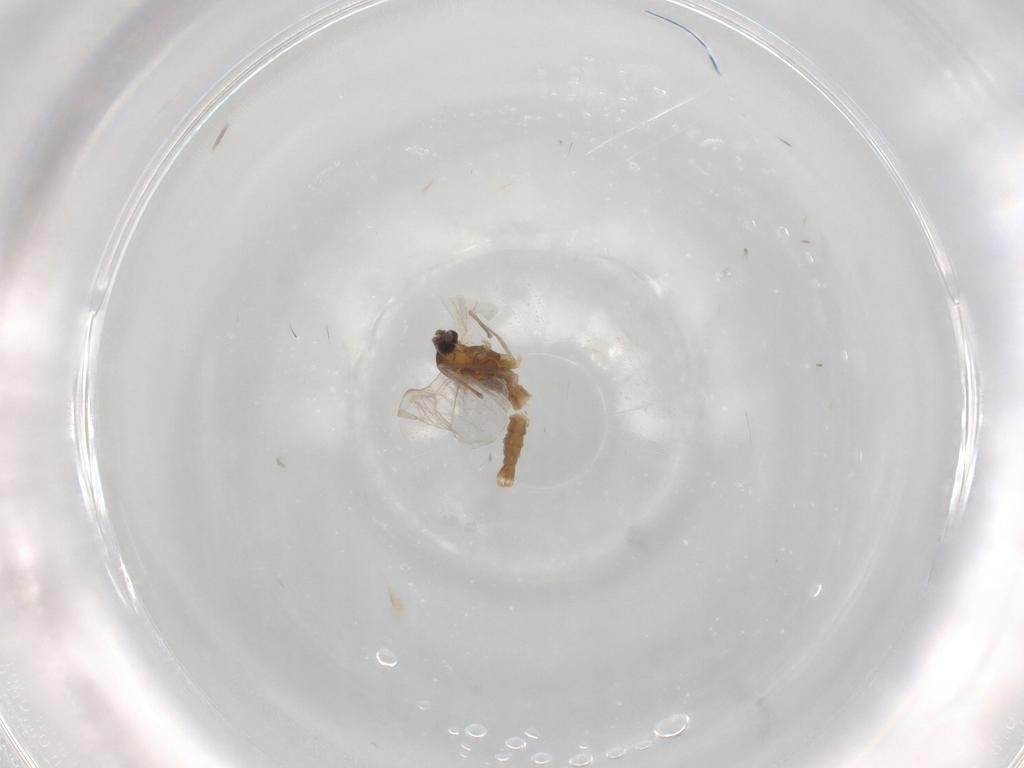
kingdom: Animalia
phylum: Arthropoda
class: Insecta
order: Diptera
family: Cecidomyiidae
